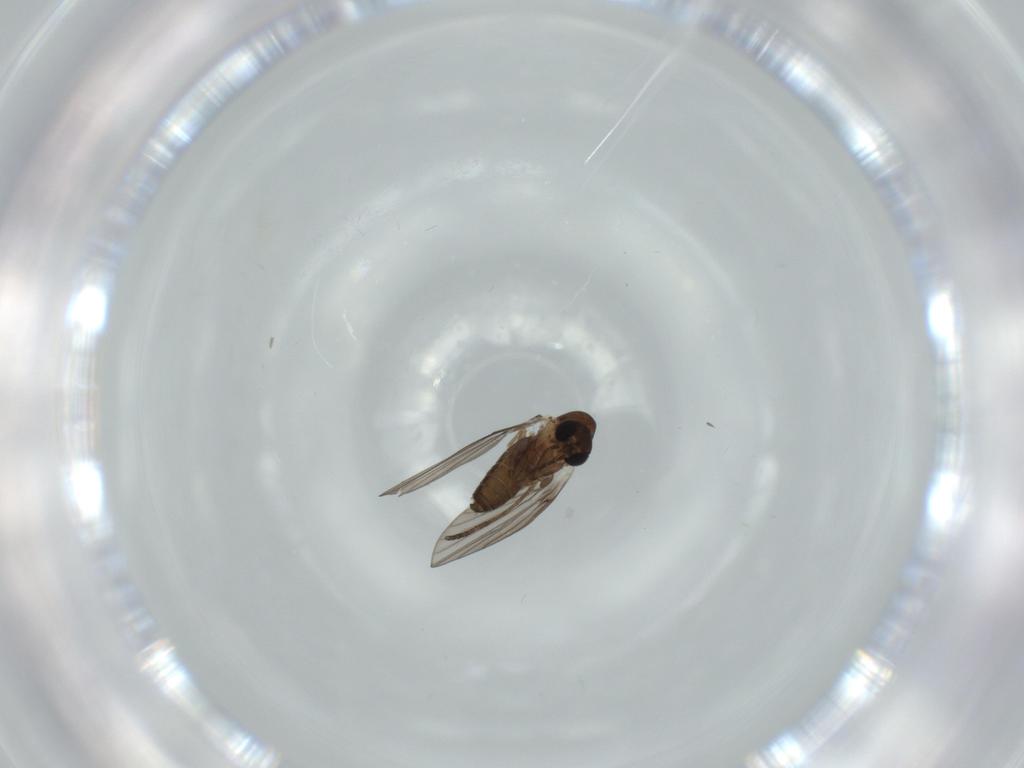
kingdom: Animalia
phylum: Arthropoda
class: Insecta
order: Diptera
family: Psychodidae
